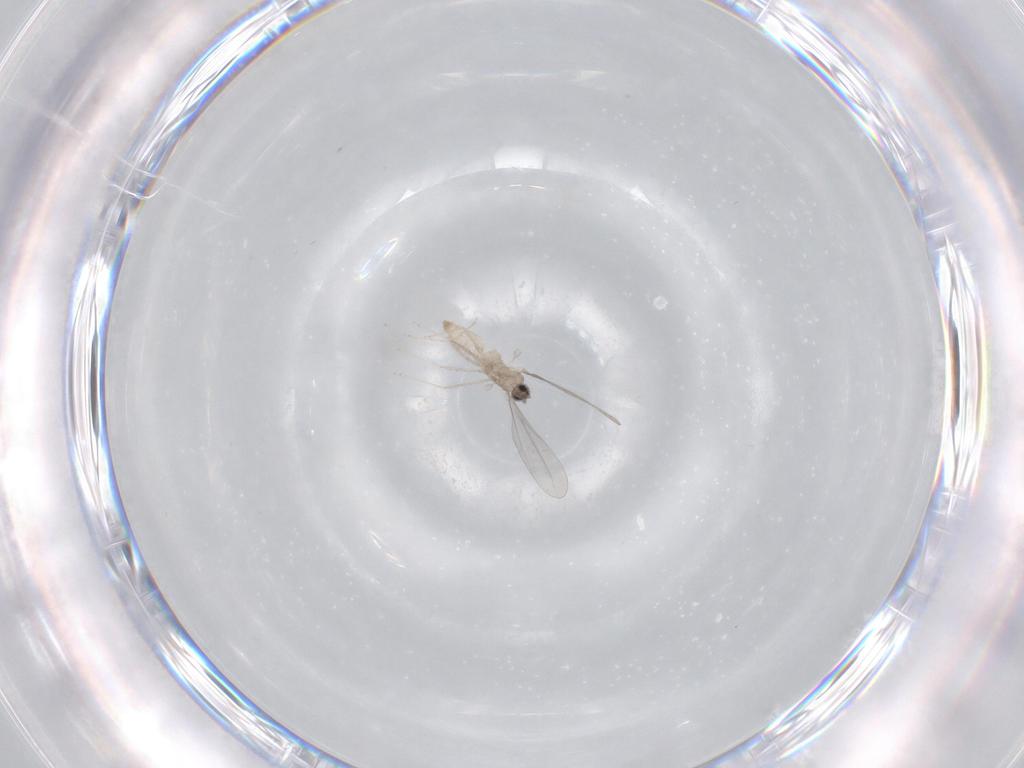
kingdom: Animalia
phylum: Arthropoda
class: Insecta
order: Diptera
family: Cecidomyiidae
